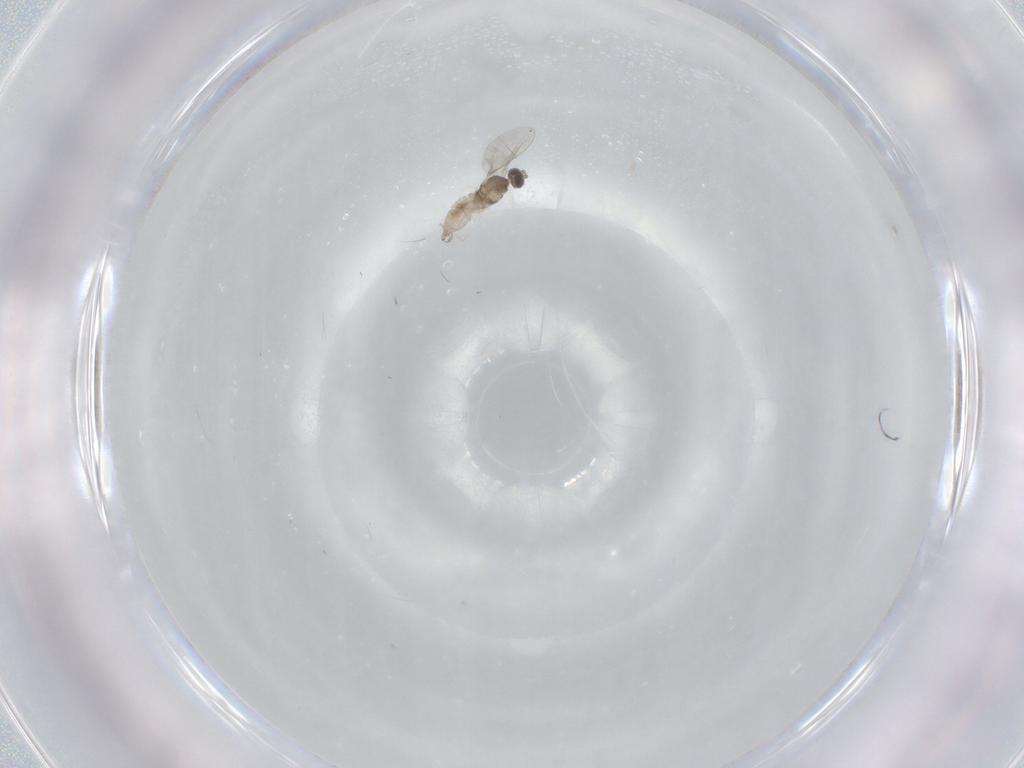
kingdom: Animalia
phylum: Arthropoda
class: Insecta
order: Diptera
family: Cecidomyiidae
